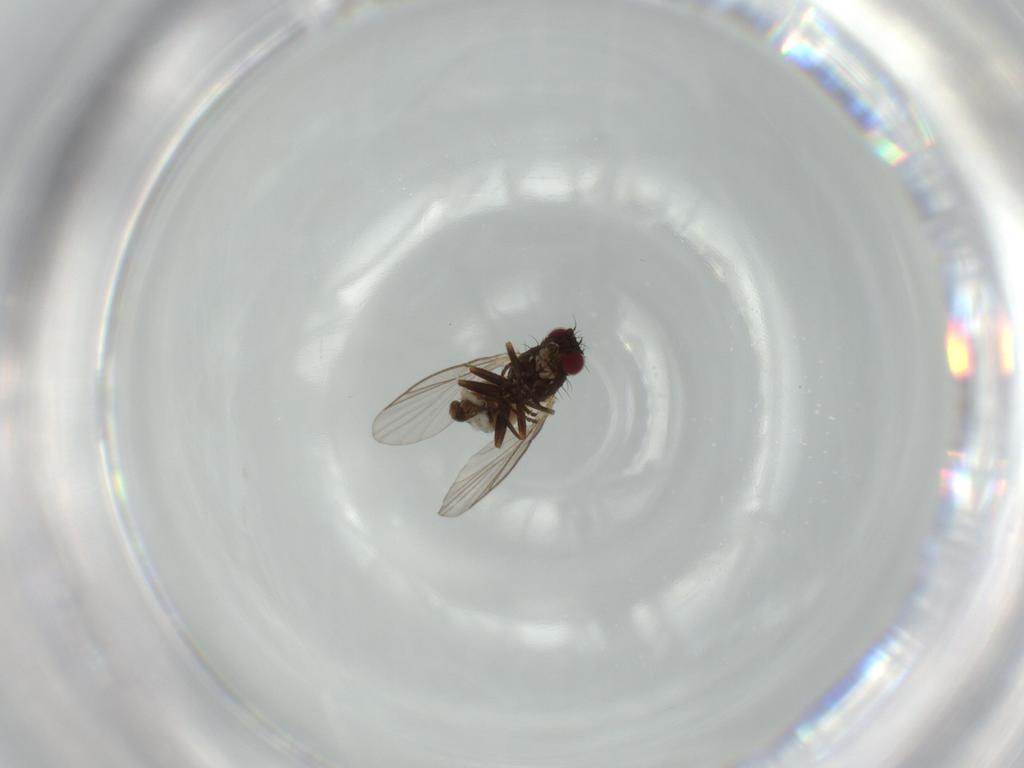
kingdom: Animalia
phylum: Arthropoda
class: Insecta
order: Diptera
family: Agromyzidae
